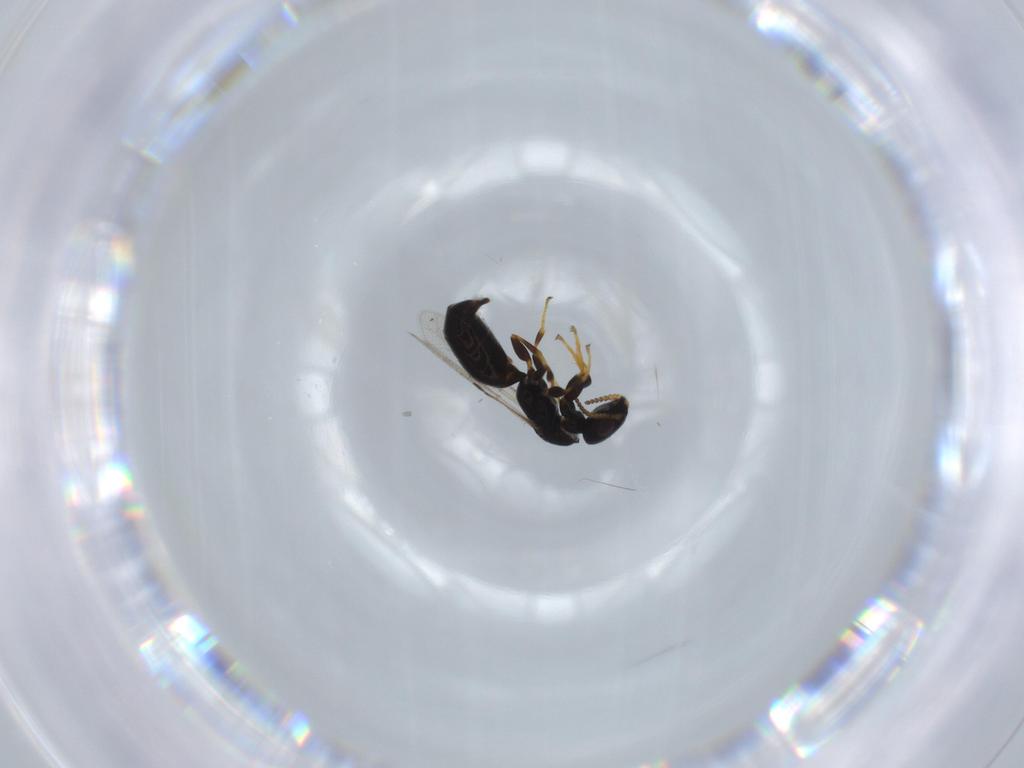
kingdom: Animalia
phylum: Arthropoda
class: Insecta
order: Hymenoptera
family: Bethylidae
